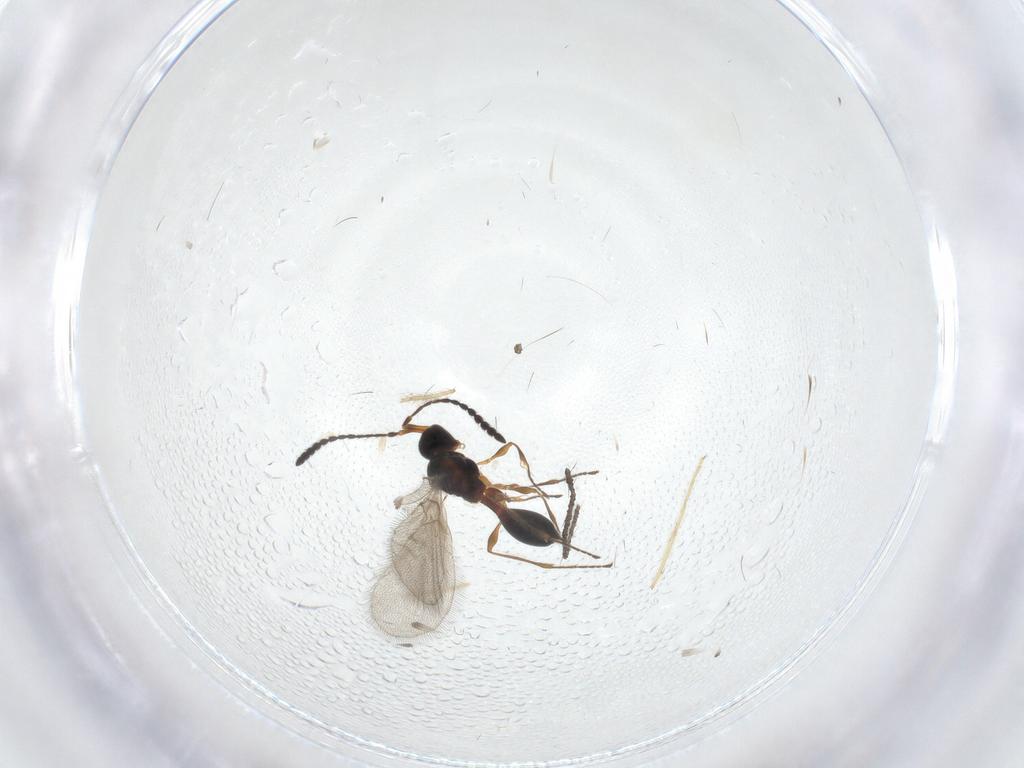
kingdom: Animalia
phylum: Arthropoda
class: Insecta
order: Hymenoptera
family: Diapriidae
